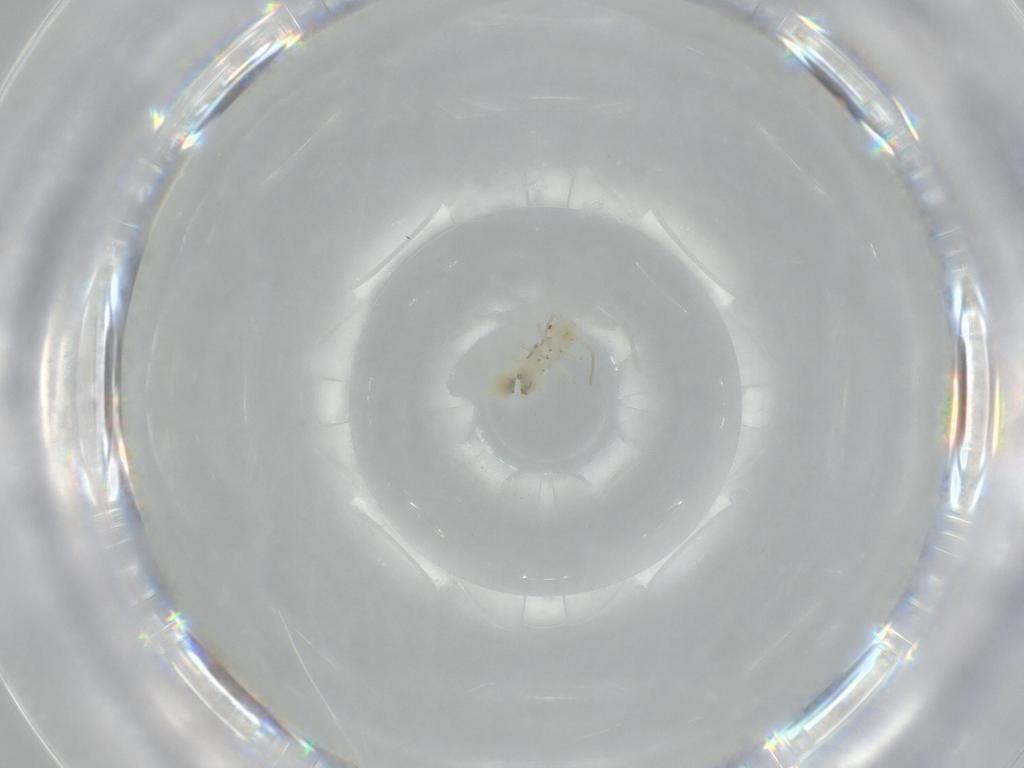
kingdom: Animalia
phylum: Arthropoda
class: Insecta
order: Psocodea
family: Caeciliusidae
